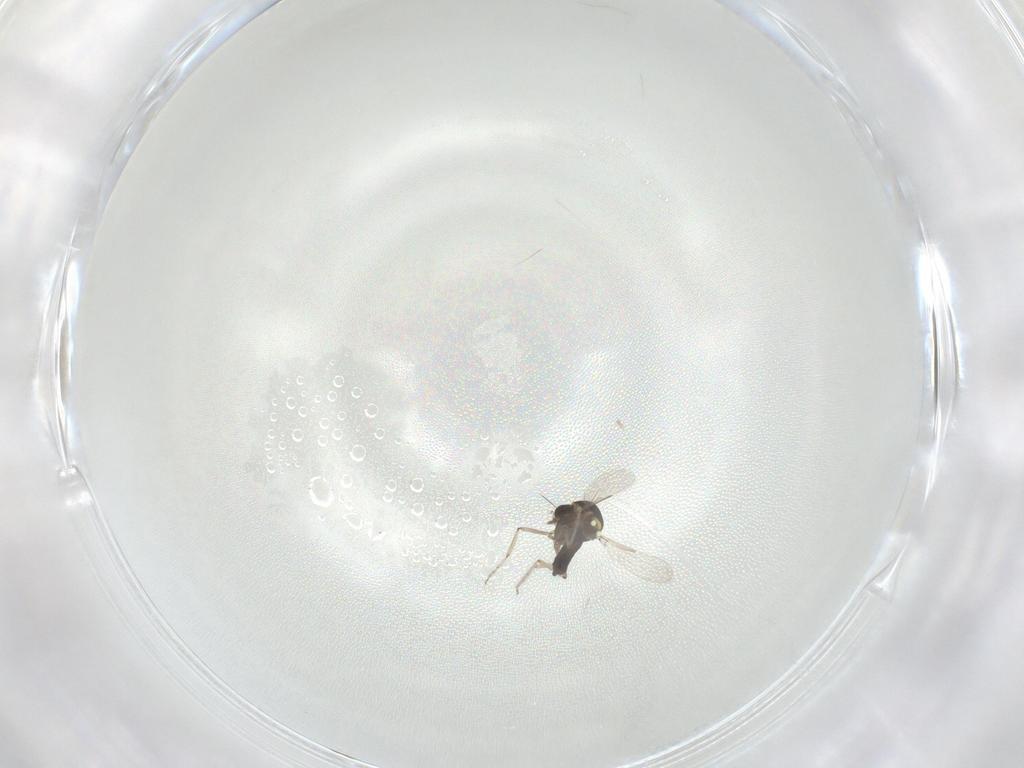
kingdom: Animalia
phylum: Arthropoda
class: Insecta
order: Diptera
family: Ceratopogonidae
